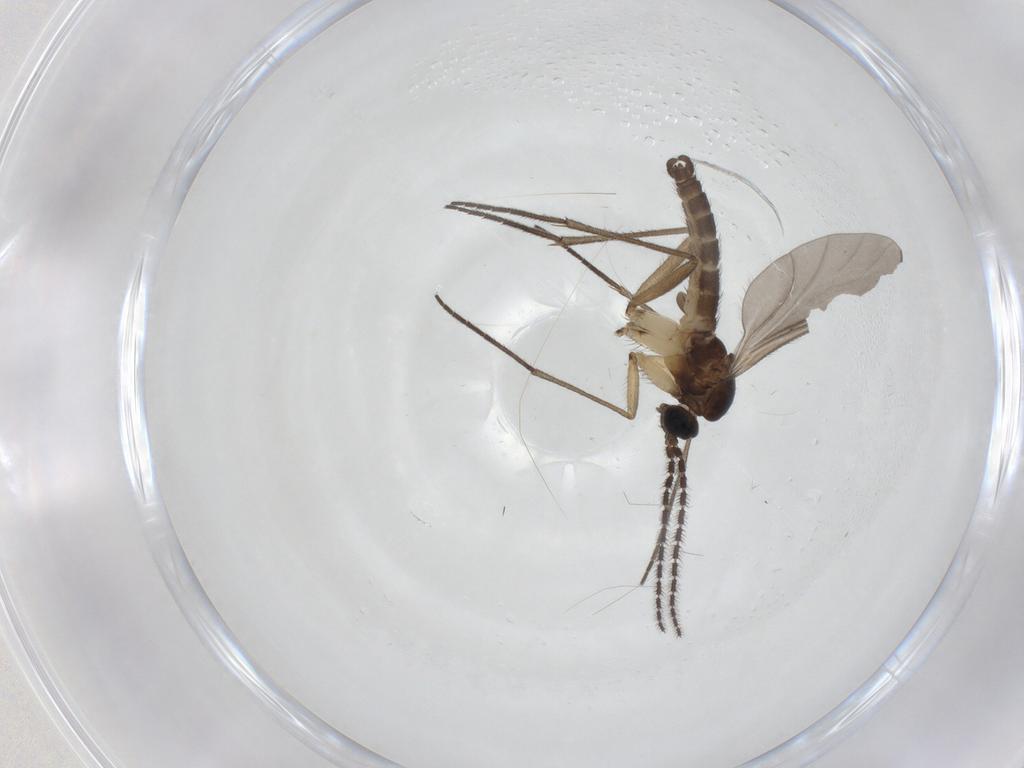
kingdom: Animalia
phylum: Arthropoda
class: Insecta
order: Diptera
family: Sciaridae
